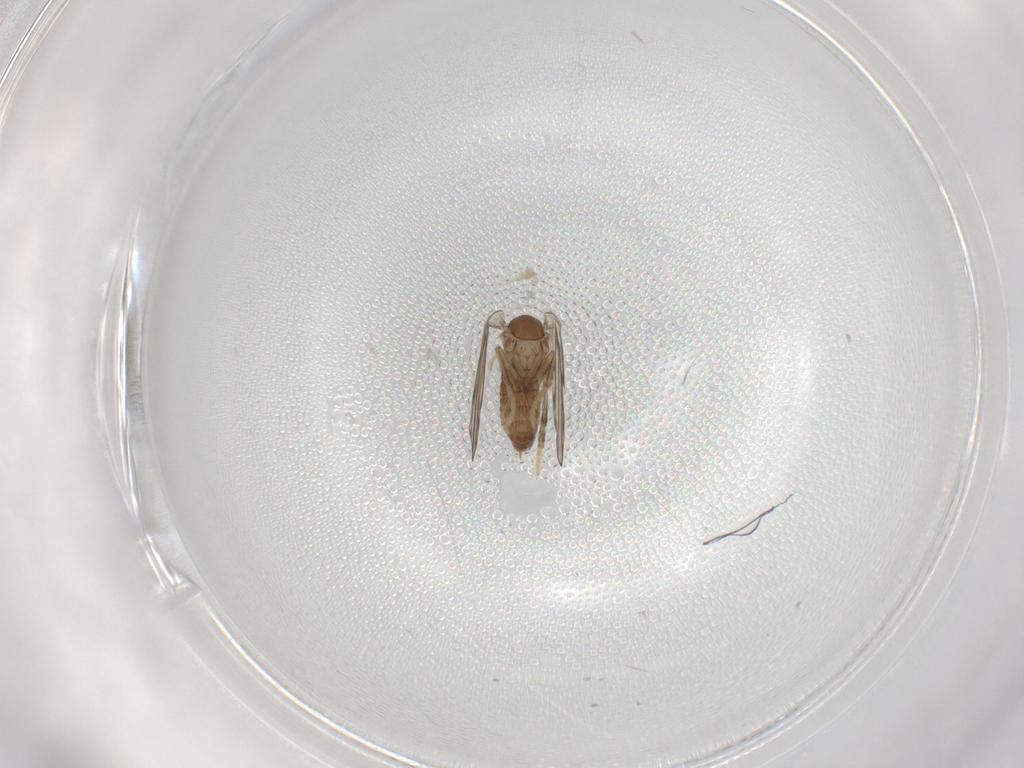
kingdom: Animalia
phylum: Arthropoda
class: Insecta
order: Diptera
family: Psychodidae
